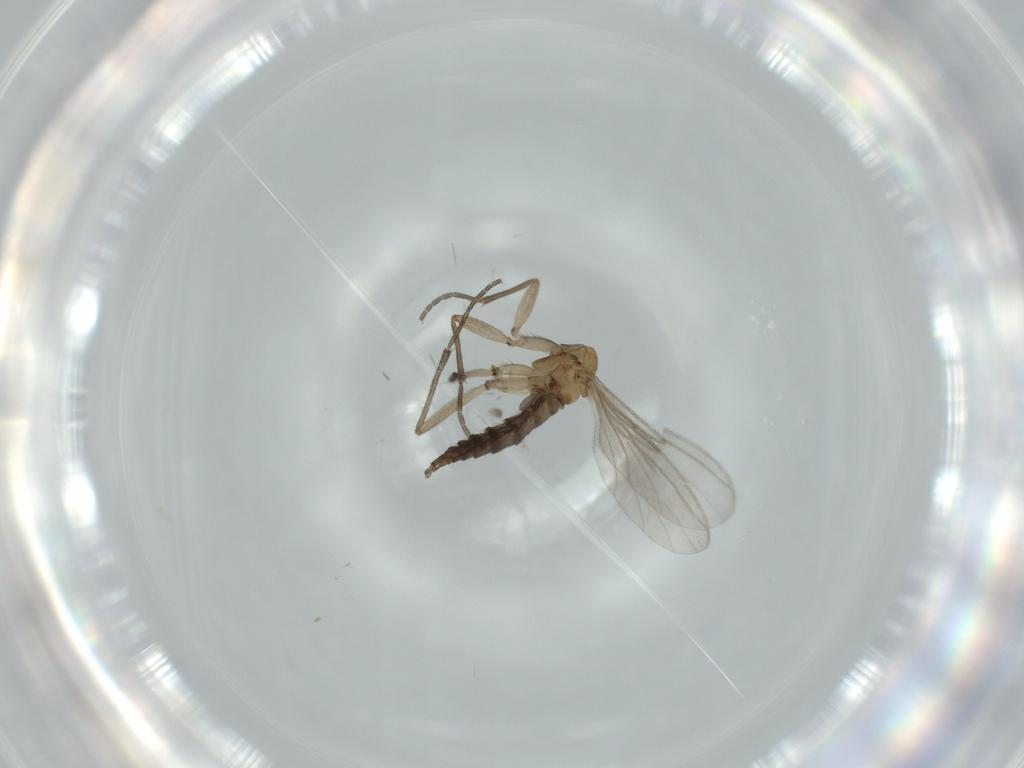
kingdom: Animalia
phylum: Arthropoda
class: Insecta
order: Diptera
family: Sciaridae
